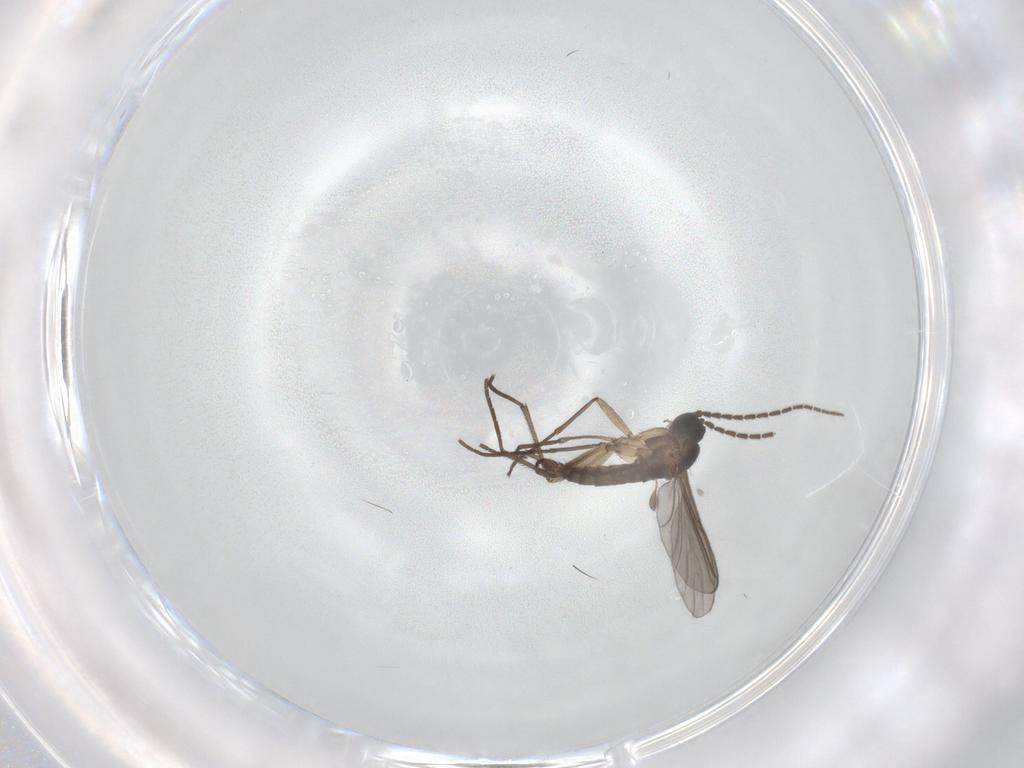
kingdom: Animalia
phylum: Arthropoda
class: Insecta
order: Diptera
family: Sciaridae
